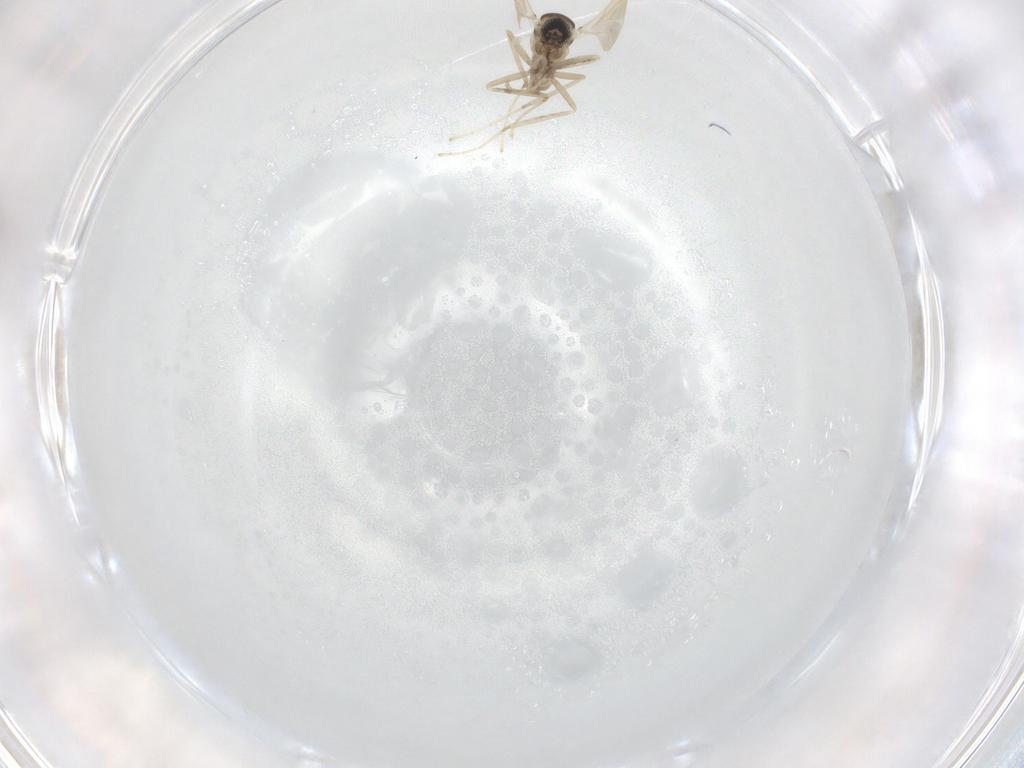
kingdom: Animalia
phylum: Arthropoda
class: Insecta
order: Diptera
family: Cecidomyiidae
